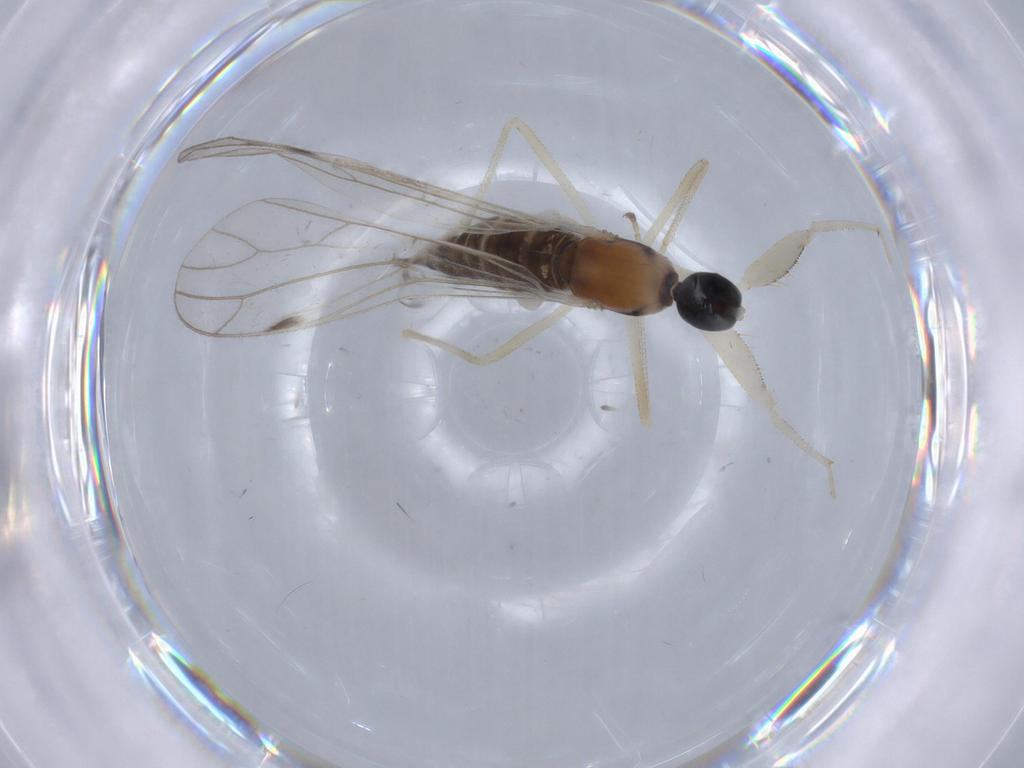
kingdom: Animalia
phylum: Arthropoda
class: Insecta
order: Diptera
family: Empididae
